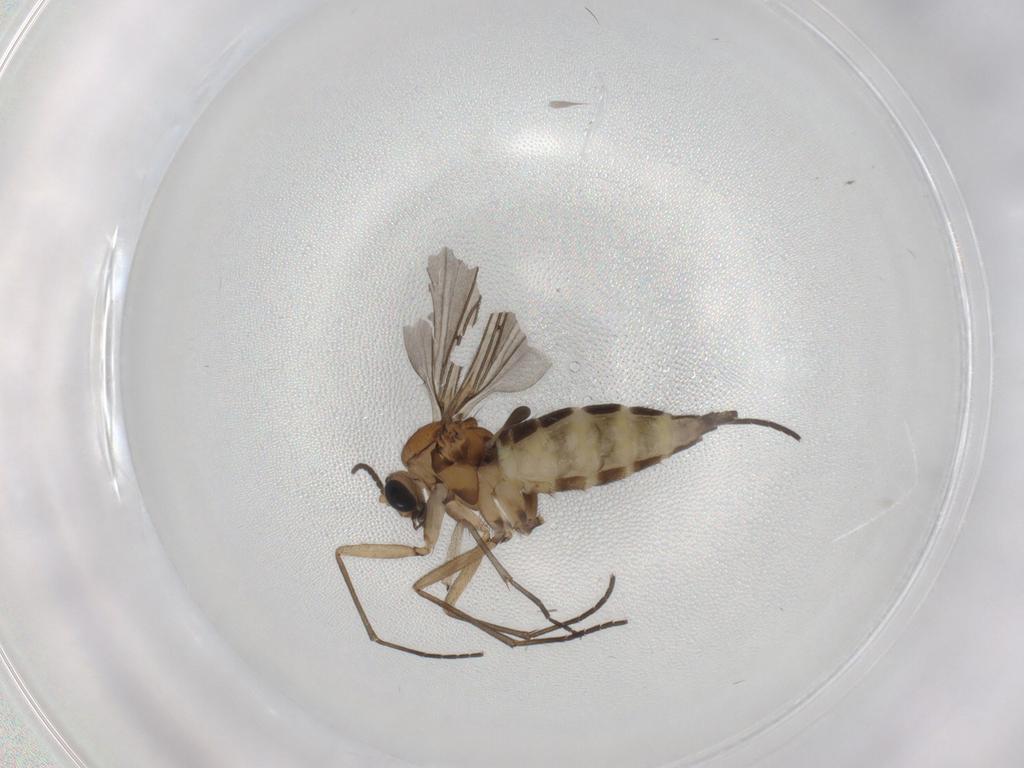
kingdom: Animalia
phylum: Arthropoda
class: Insecta
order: Diptera
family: Sciaridae
